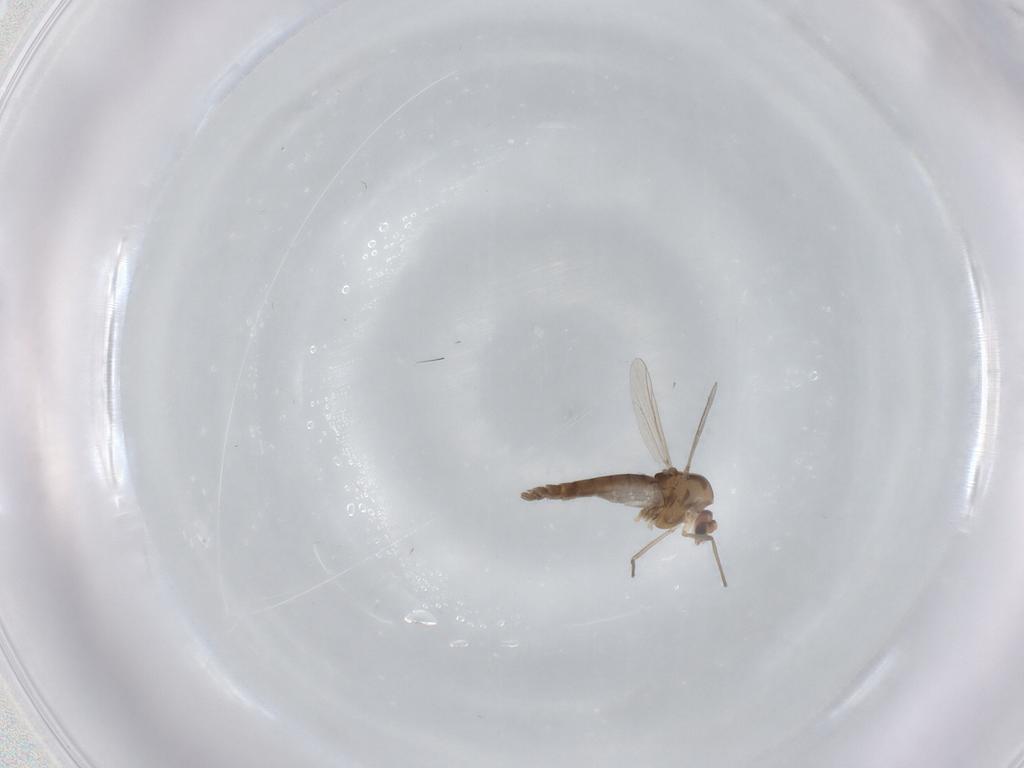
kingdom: Animalia
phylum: Arthropoda
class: Insecta
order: Diptera
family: Chironomidae
